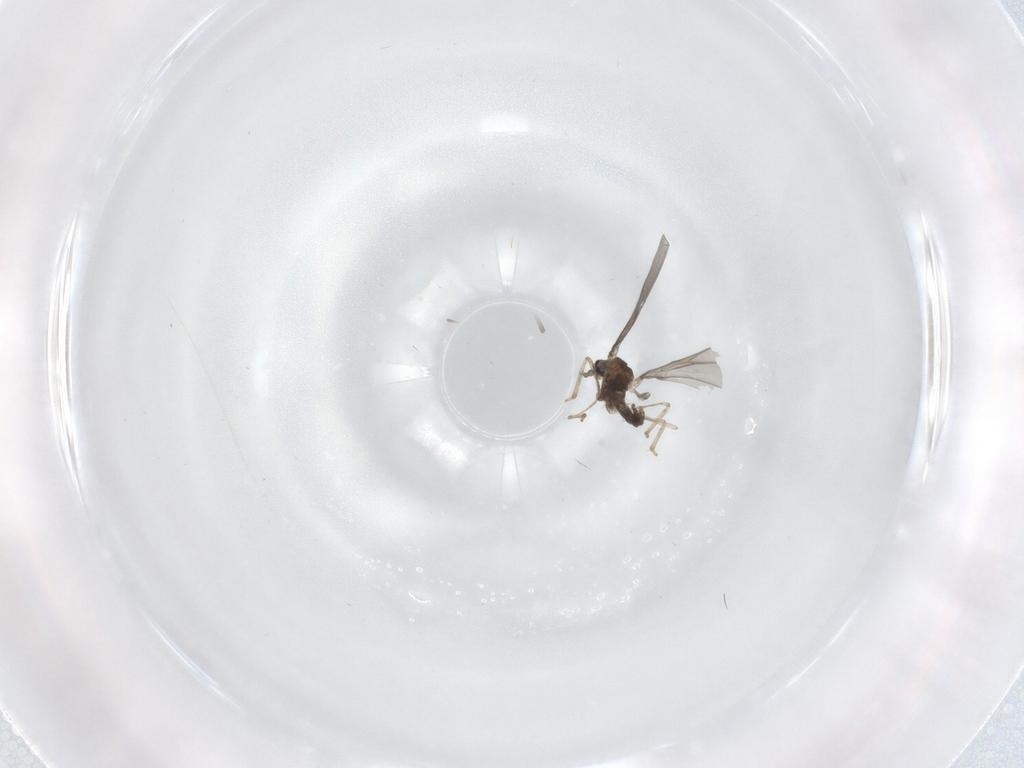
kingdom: Animalia
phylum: Arthropoda
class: Insecta
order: Diptera
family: Cecidomyiidae
